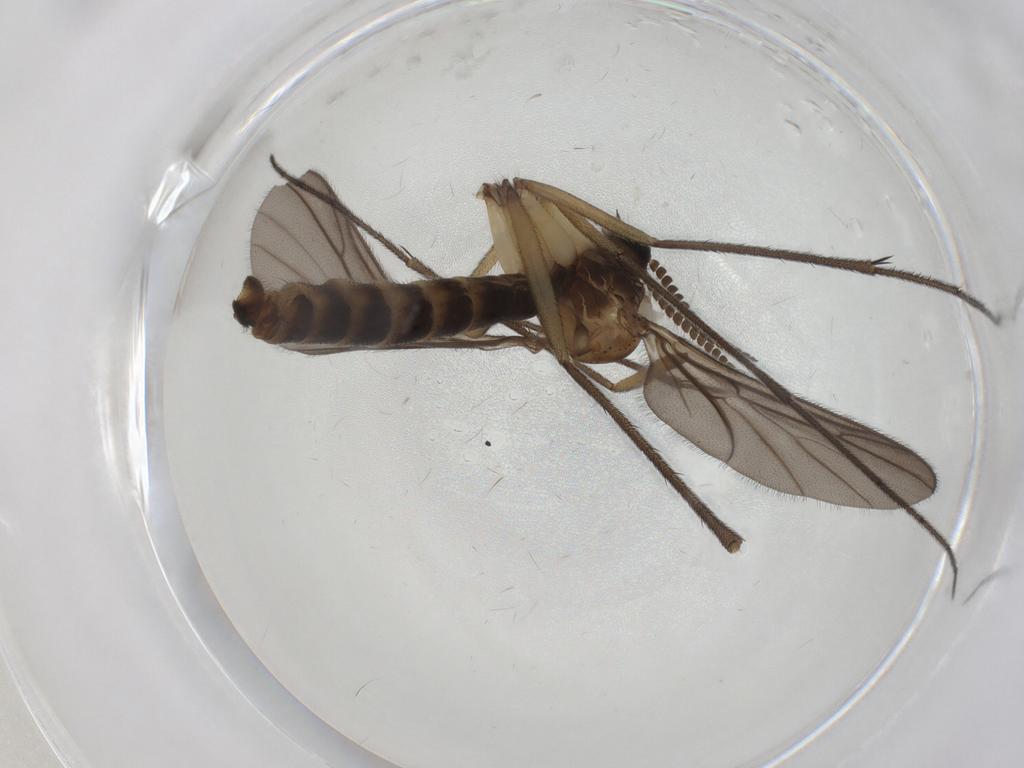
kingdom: Animalia
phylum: Arthropoda
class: Insecta
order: Diptera
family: Ditomyiidae
